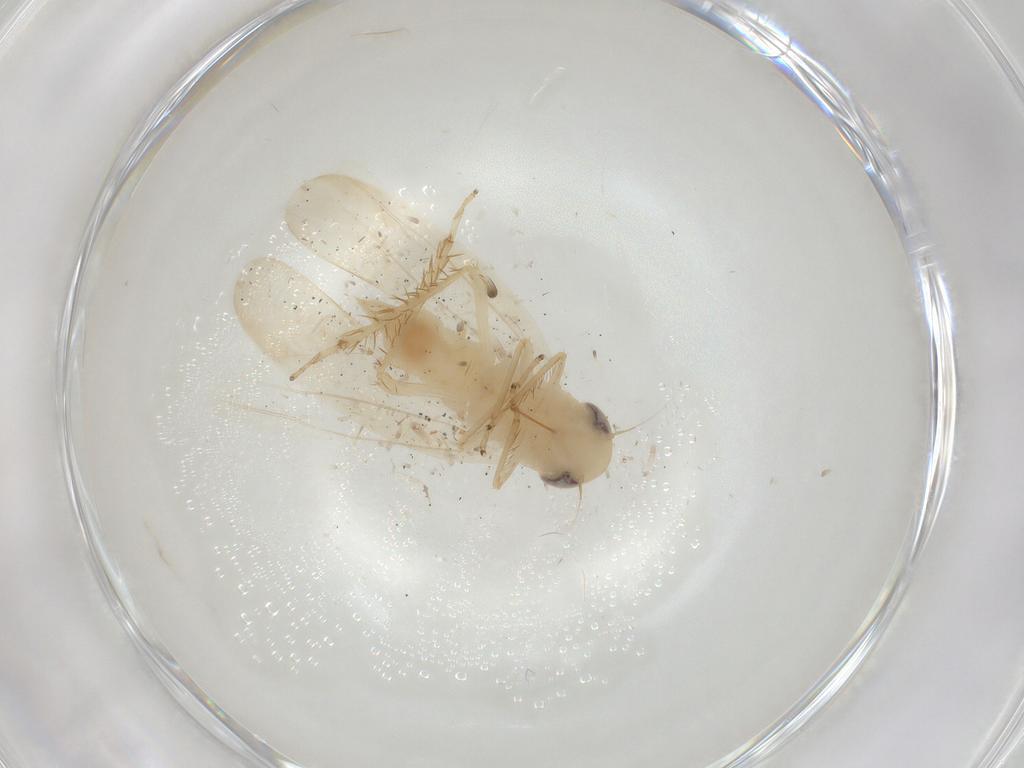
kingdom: Animalia
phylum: Arthropoda
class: Insecta
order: Hemiptera
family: Cicadellidae
